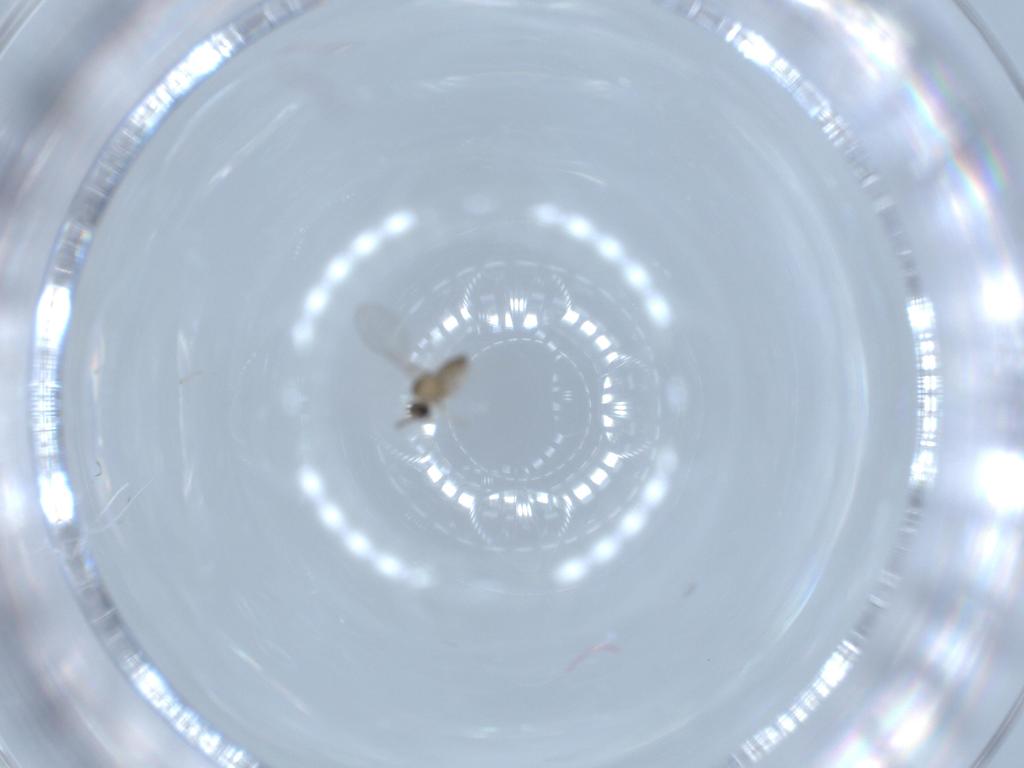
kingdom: Animalia
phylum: Arthropoda
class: Insecta
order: Diptera
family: Cecidomyiidae
